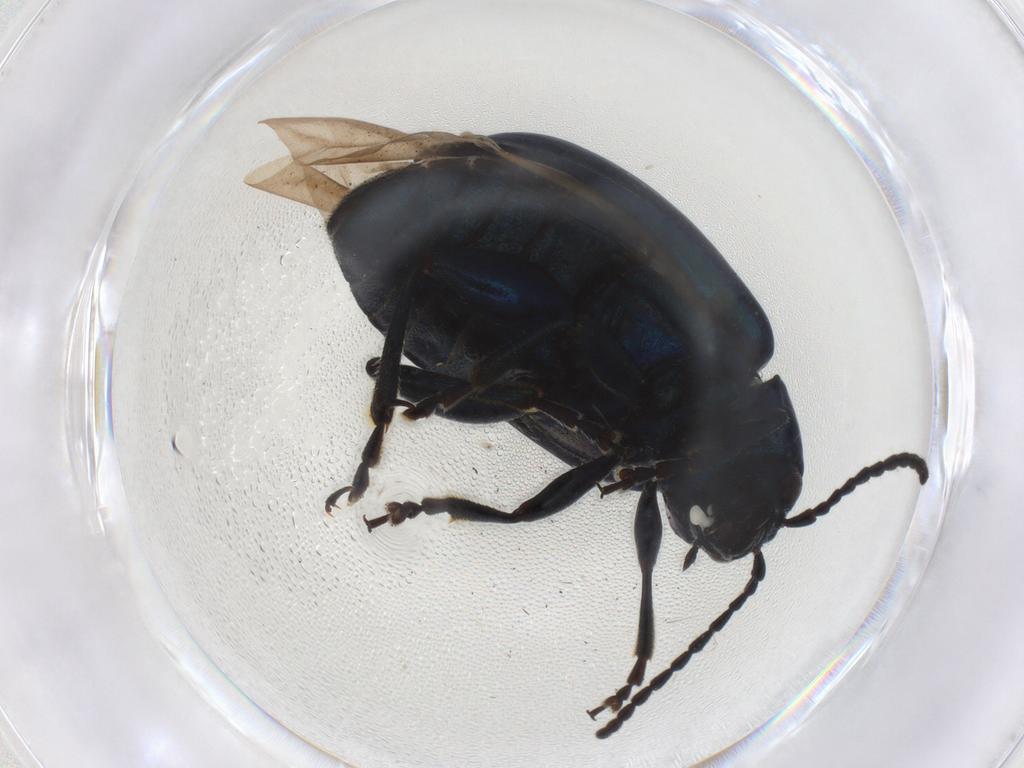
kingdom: Animalia
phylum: Arthropoda
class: Insecta
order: Coleoptera
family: Chrysomelidae
